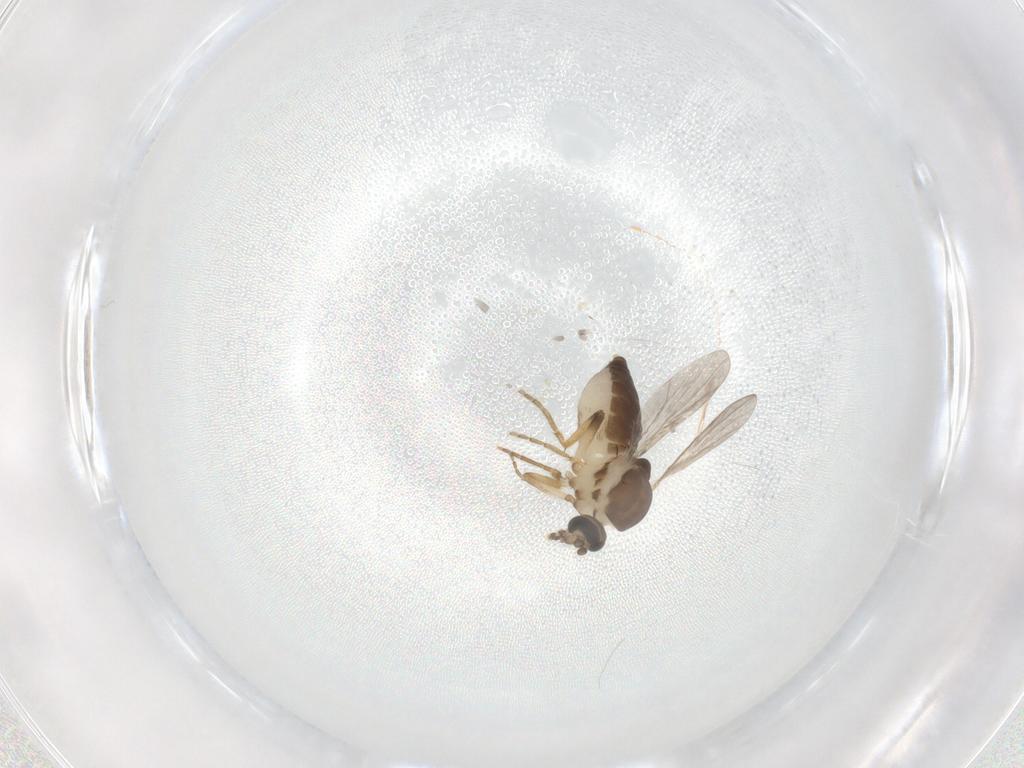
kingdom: Animalia
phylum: Arthropoda
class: Insecta
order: Diptera
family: Ceratopogonidae
